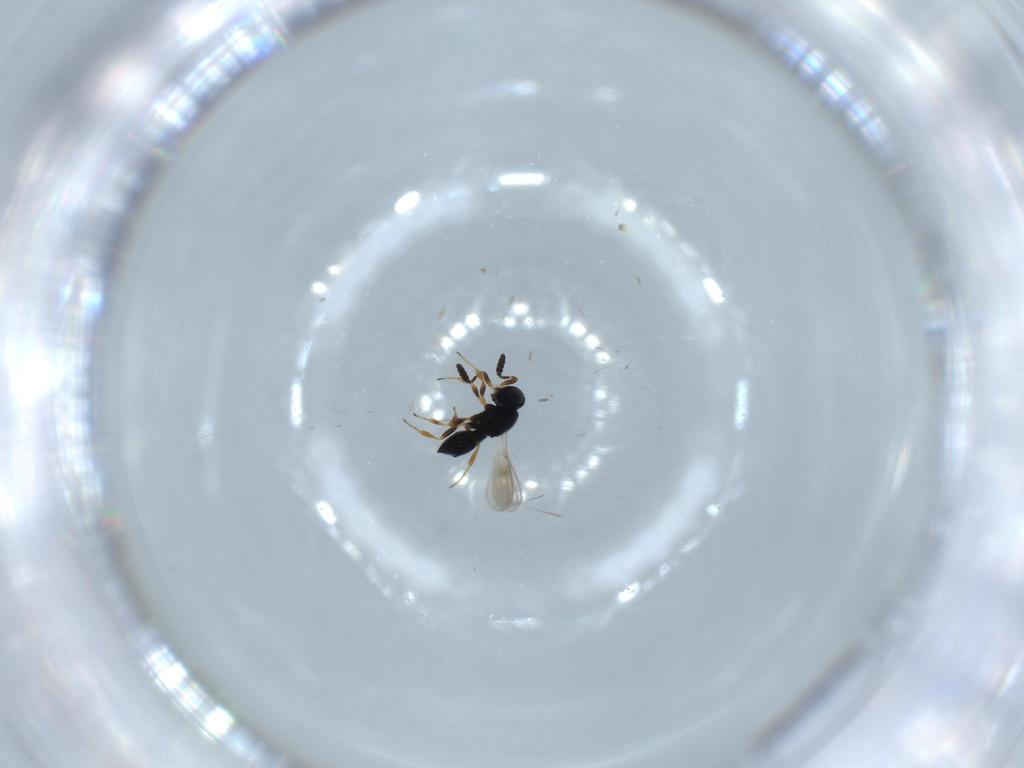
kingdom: Animalia
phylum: Arthropoda
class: Insecta
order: Hymenoptera
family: Scelionidae
